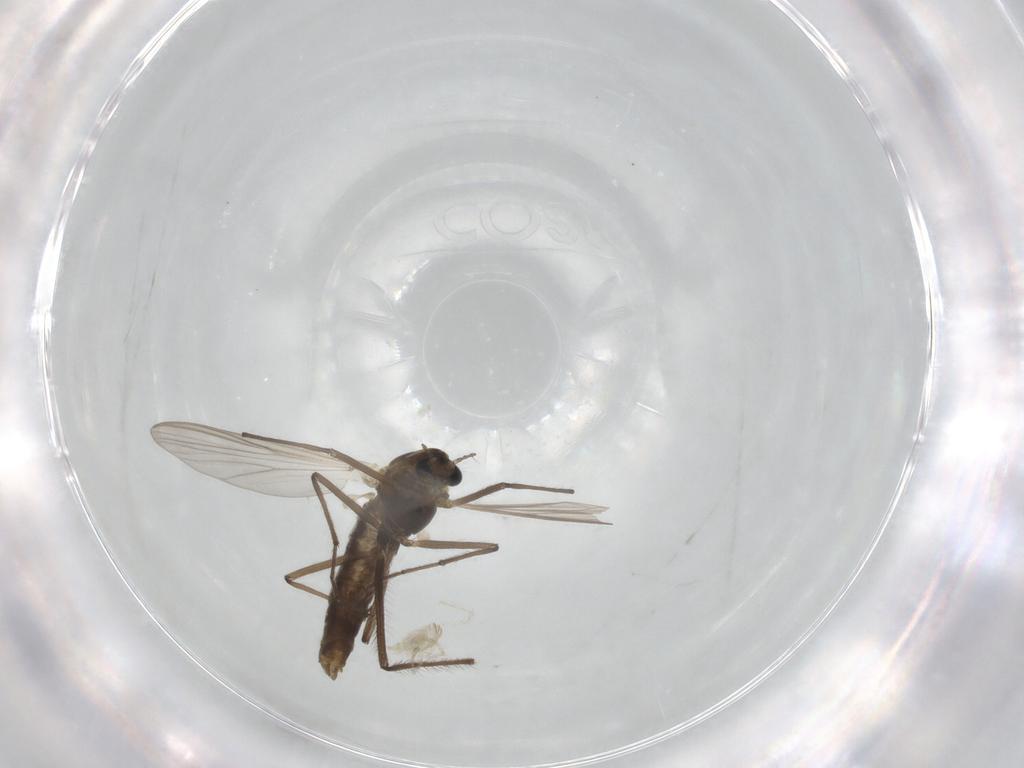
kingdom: Animalia
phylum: Arthropoda
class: Insecta
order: Diptera
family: Chironomidae
